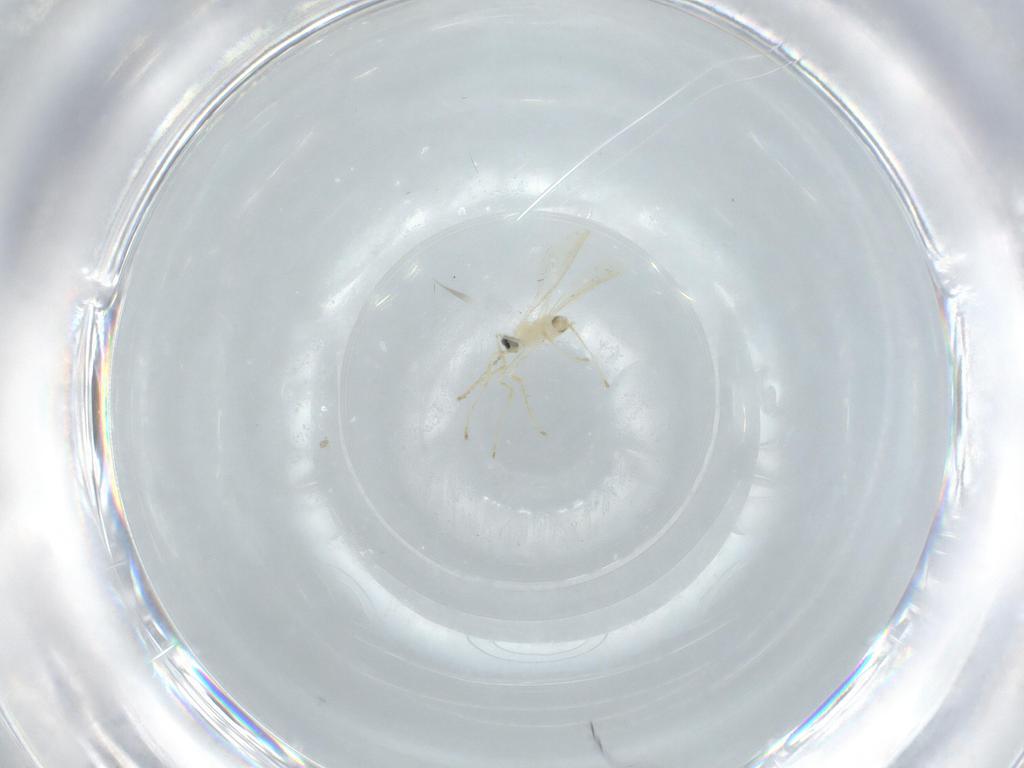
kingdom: Animalia
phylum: Arthropoda
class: Insecta
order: Diptera
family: Cecidomyiidae
